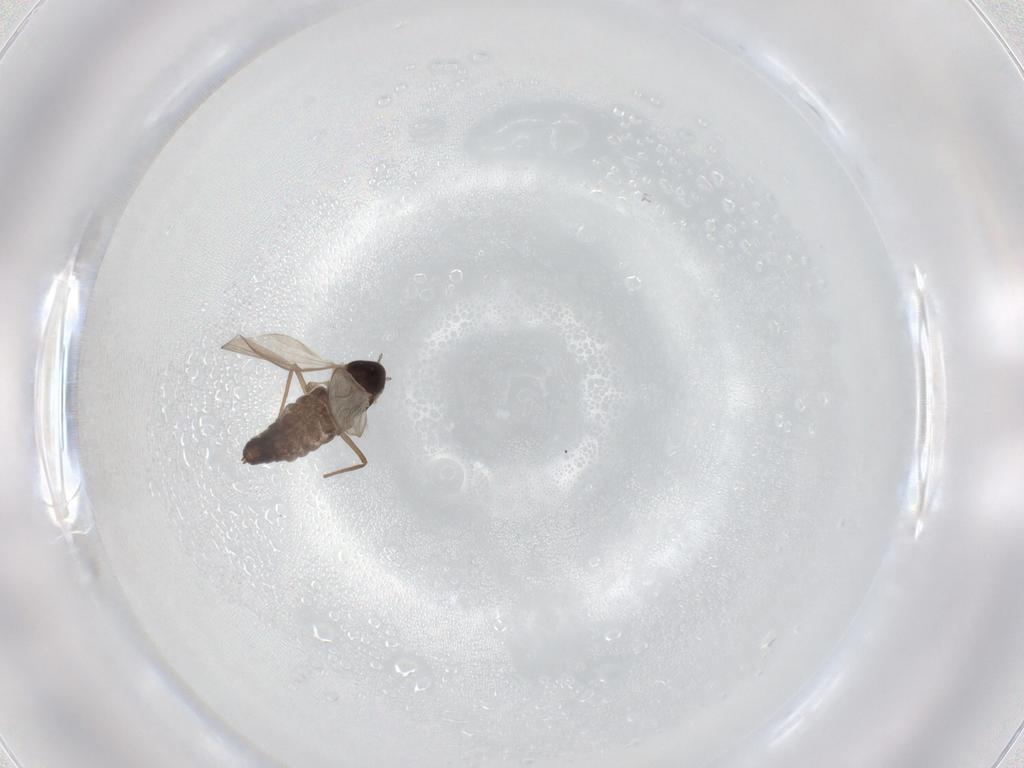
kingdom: Animalia
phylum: Arthropoda
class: Insecta
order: Diptera
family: Chironomidae
